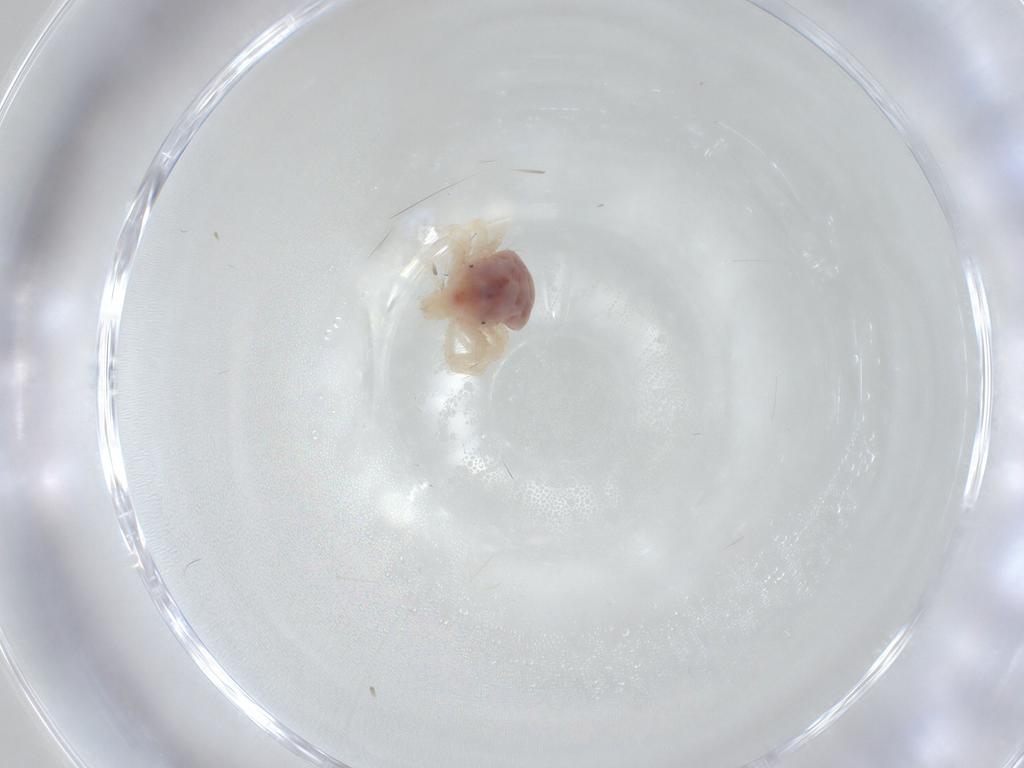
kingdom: Animalia
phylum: Arthropoda
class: Arachnida
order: Trombidiformes
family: Anystidae
